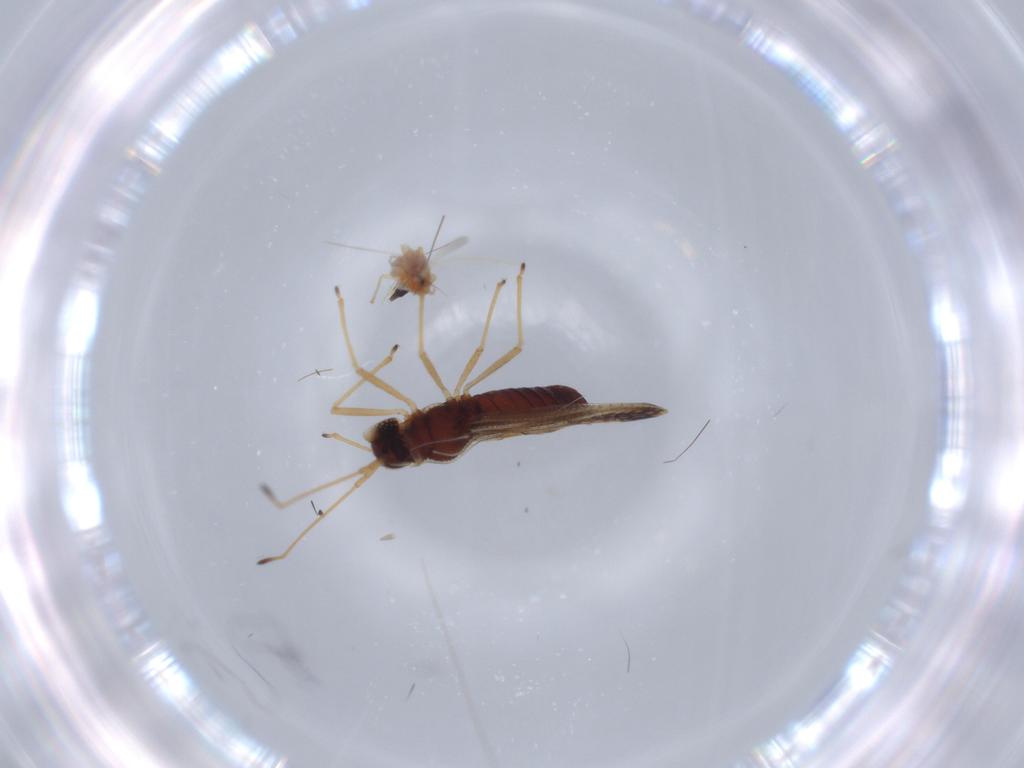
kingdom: Animalia
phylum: Arthropoda
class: Insecta
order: Hemiptera
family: Tingidae
